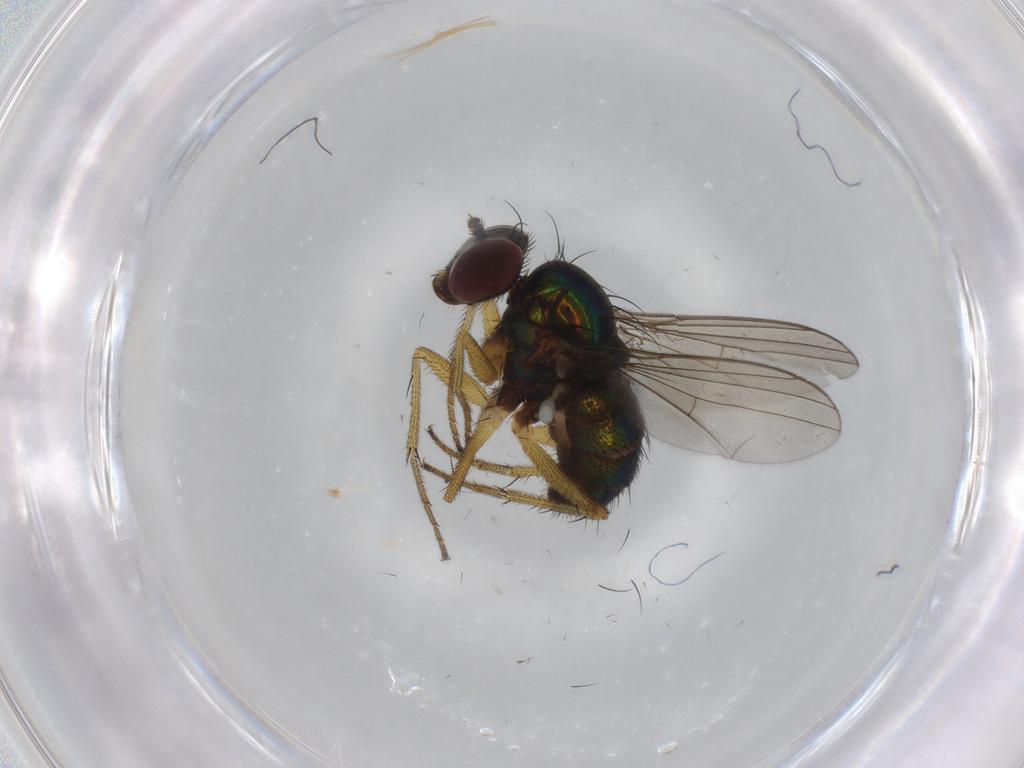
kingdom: Animalia
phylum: Arthropoda
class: Insecta
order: Diptera
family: Dolichopodidae
